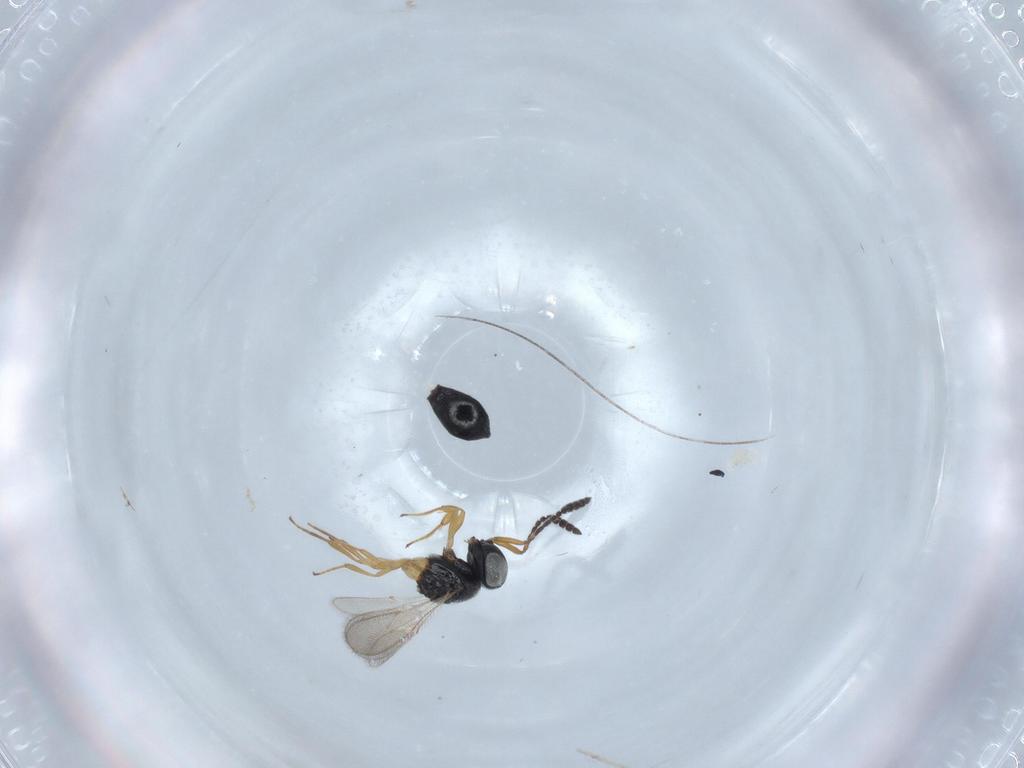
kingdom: Animalia
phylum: Arthropoda
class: Insecta
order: Hymenoptera
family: Scelionidae
